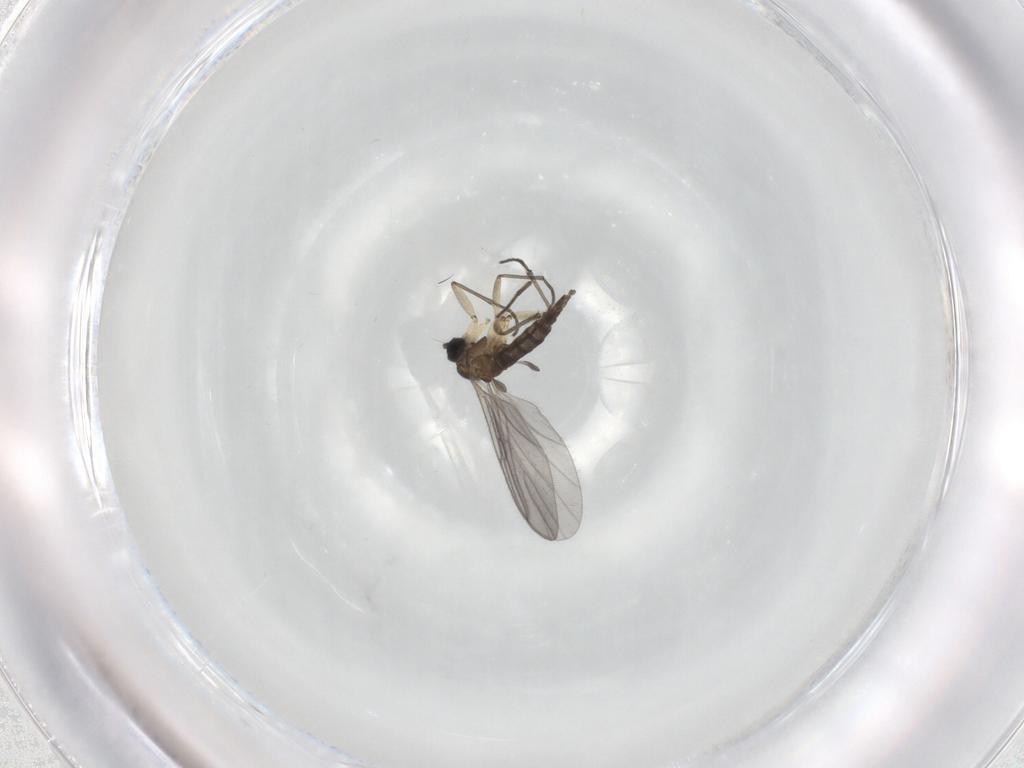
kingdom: Animalia
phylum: Arthropoda
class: Insecta
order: Diptera
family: Sciaridae
